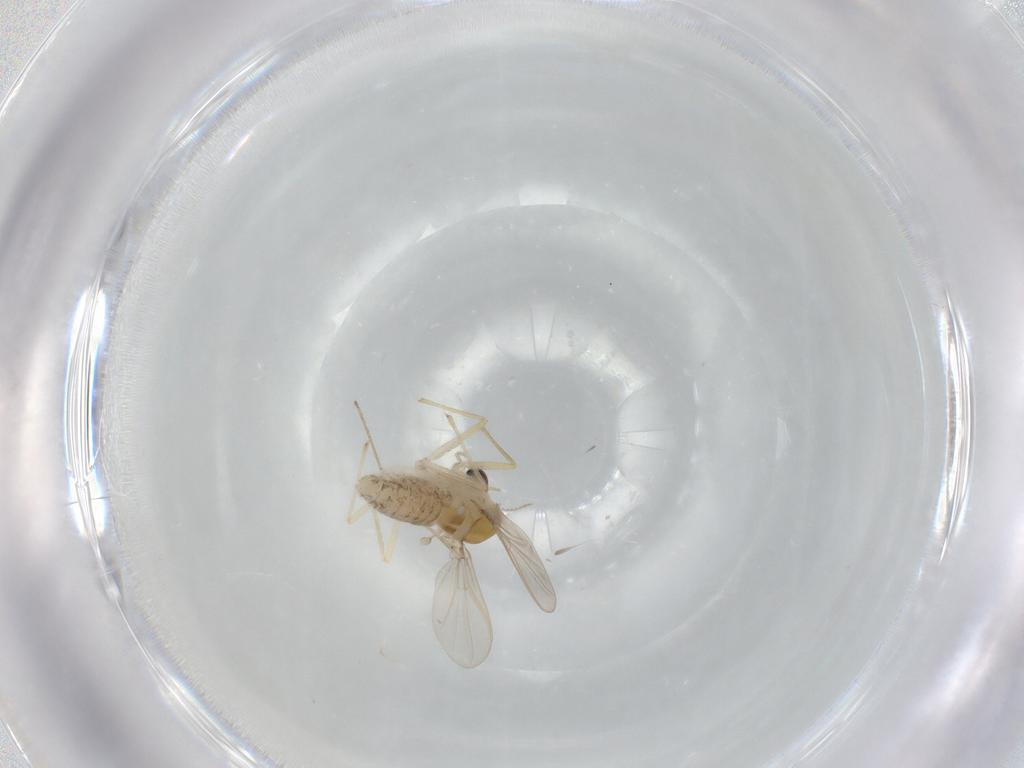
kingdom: Animalia
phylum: Arthropoda
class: Insecta
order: Diptera
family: Chironomidae
